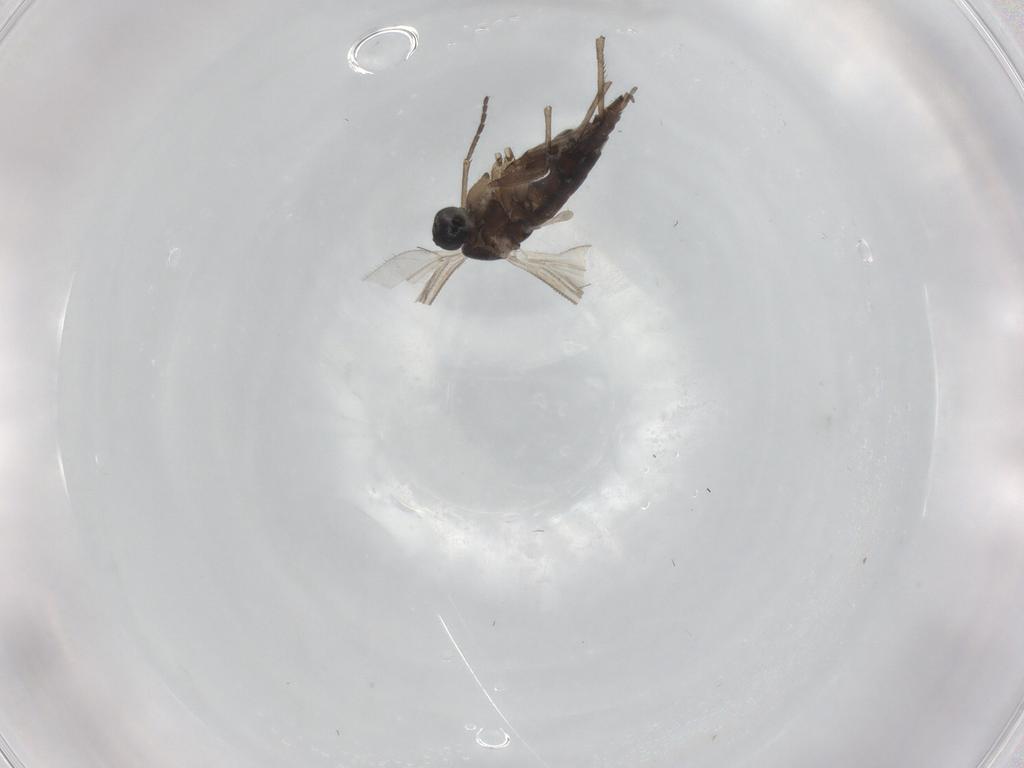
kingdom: Animalia
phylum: Arthropoda
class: Insecta
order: Diptera
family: Sciaridae
